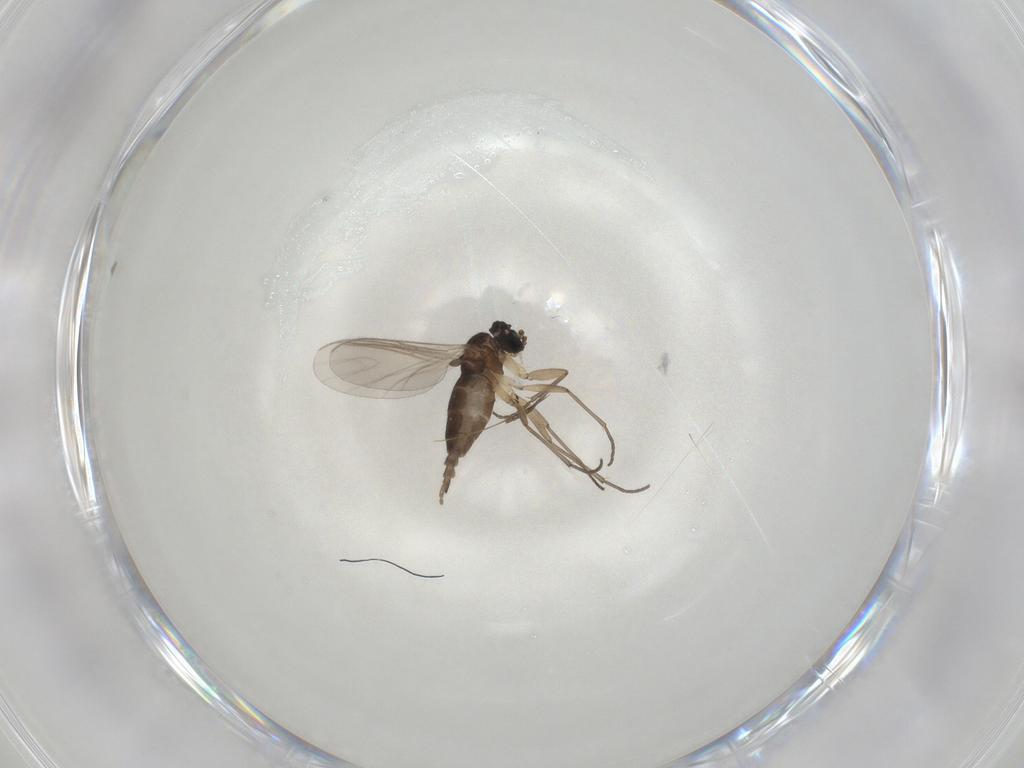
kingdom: Animalia
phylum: Arthropoda
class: Insecta
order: Diptera
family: Sciaridae
